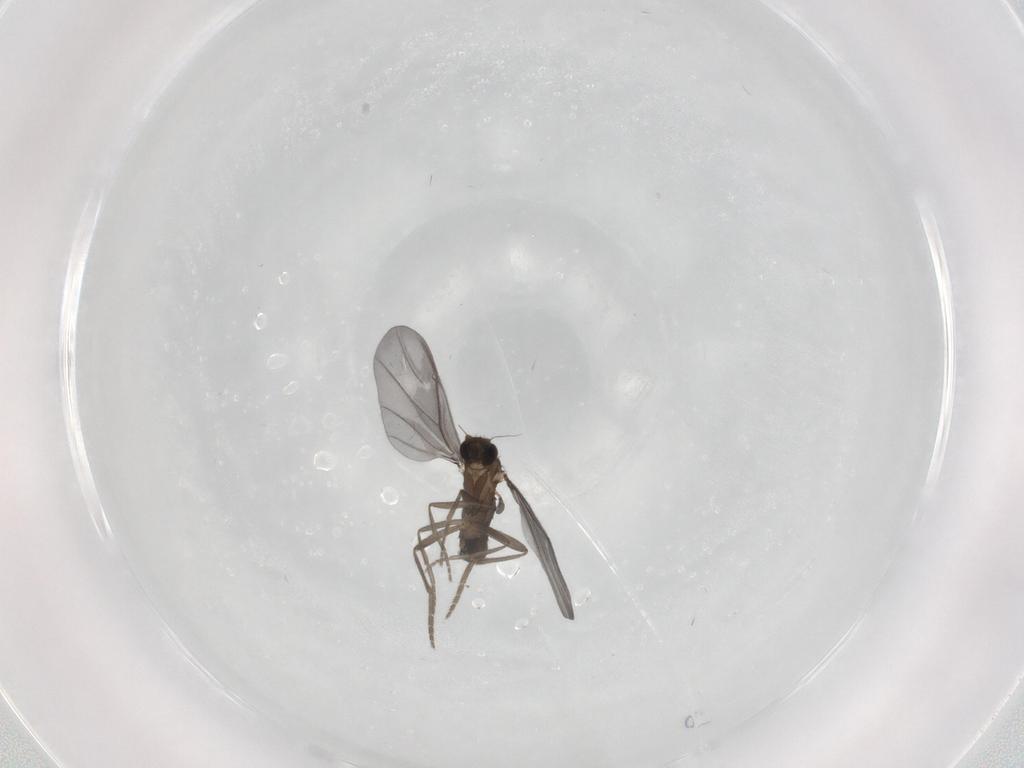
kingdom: Animalia
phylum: Arthropoda
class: Insecta
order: Diptera
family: Phoridae
